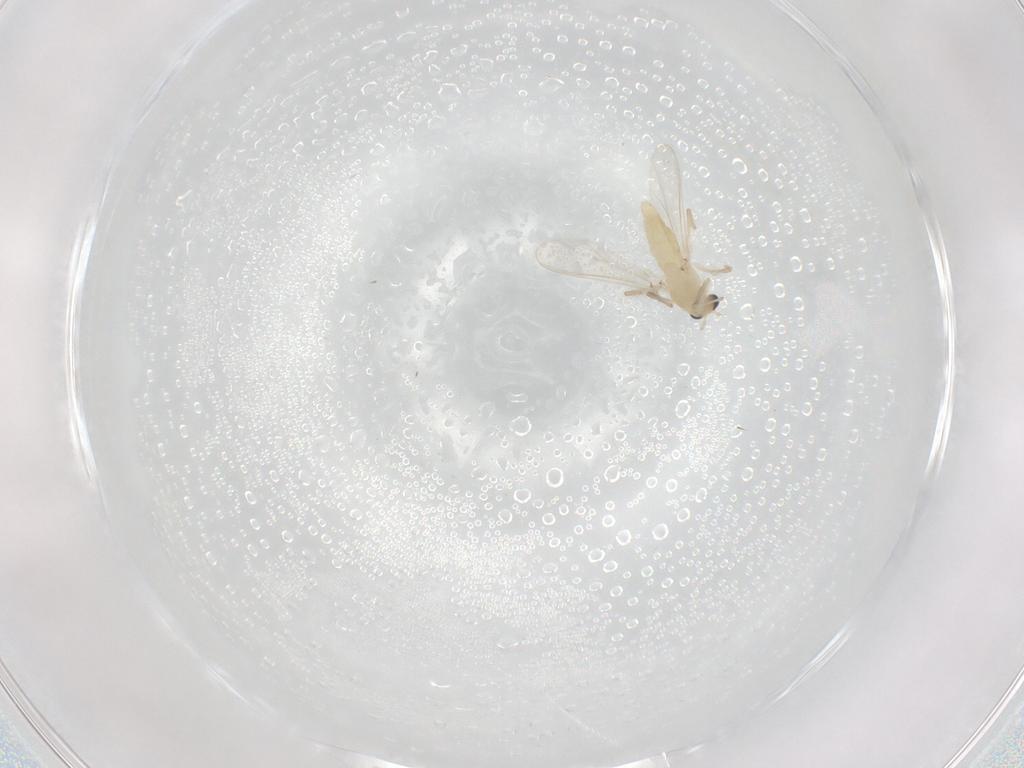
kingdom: Animalia
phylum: Arthropoda
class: Insecta
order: Diptera
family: Chironomidae
